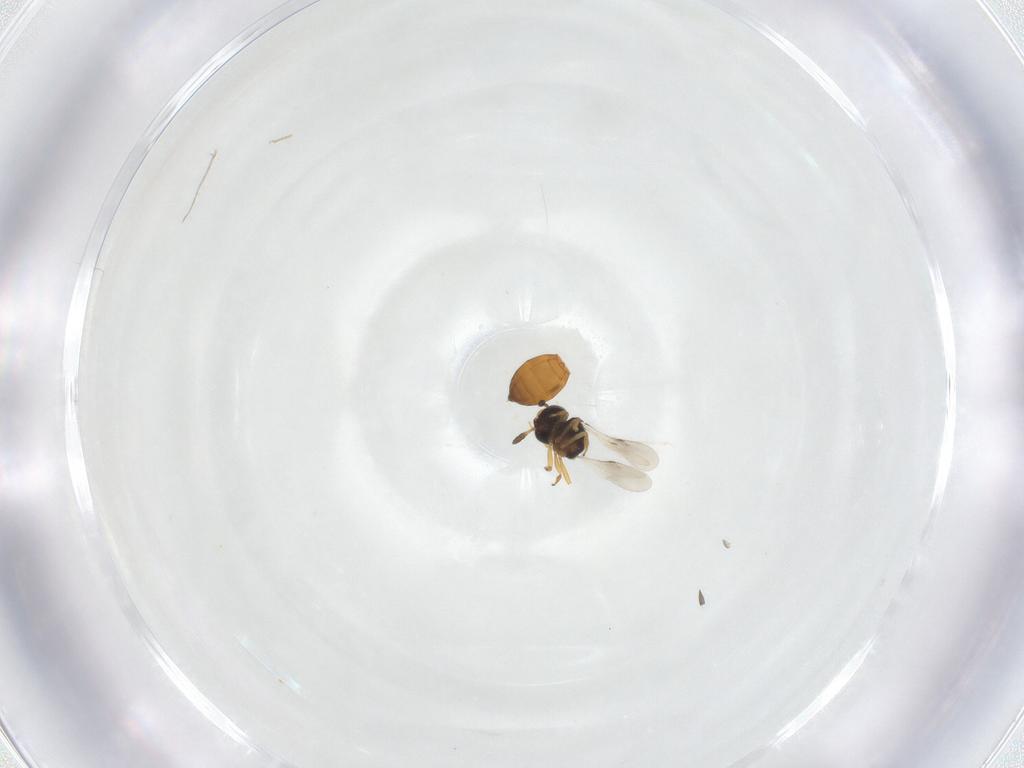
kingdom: Animalia
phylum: Arthropoda
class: Insecta
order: Hymenoptera
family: Scelionidae
